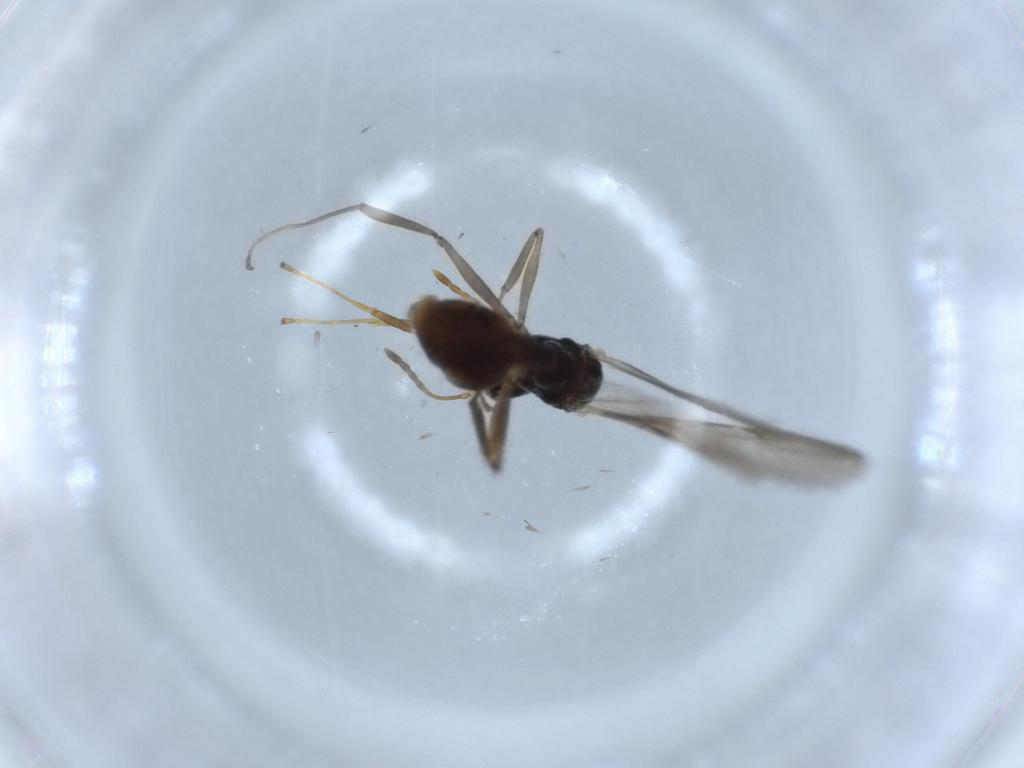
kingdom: Animalia
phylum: Arthropoda
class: Insecta
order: Hymenoptera
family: Formicidae
